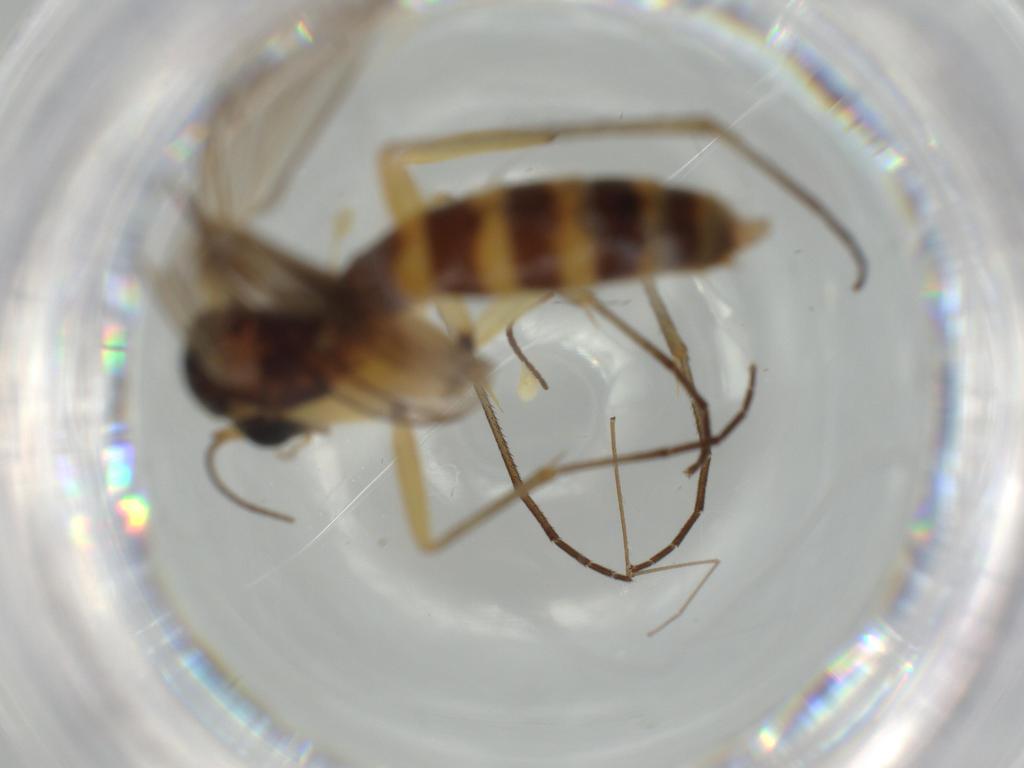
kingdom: Animalia
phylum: Arthropoda
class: Insecta
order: Diptera
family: Mycetophilidae
